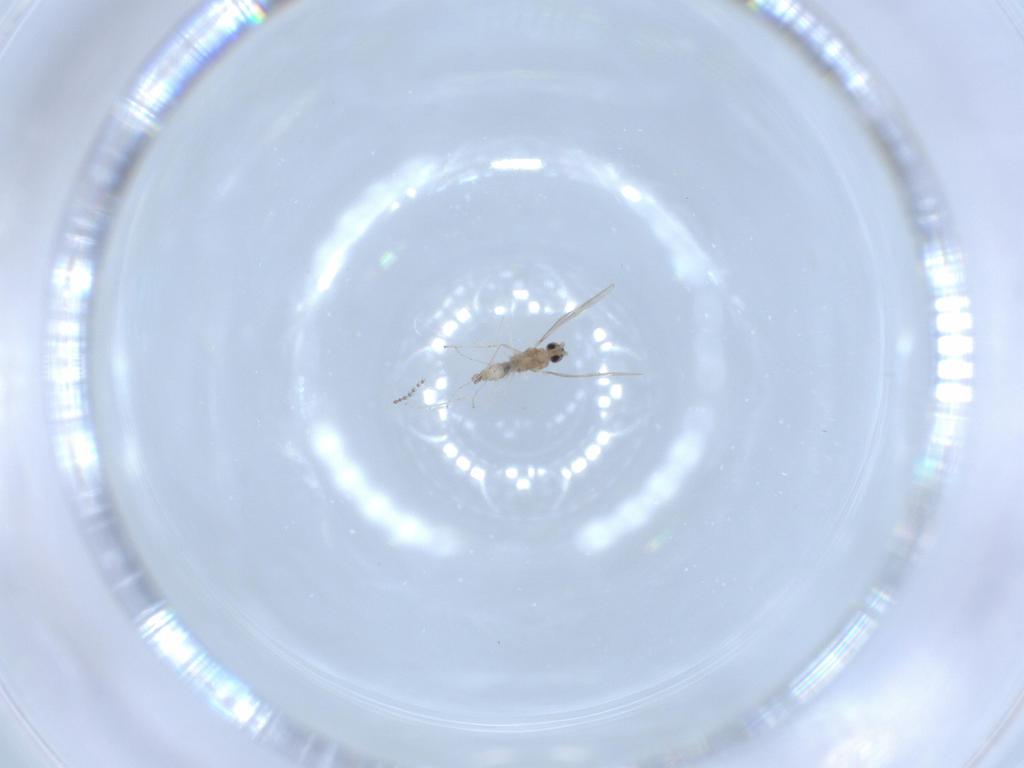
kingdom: Animalia
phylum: Arthropoda
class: Insecta
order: Diptera
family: Cecidomyiidae
